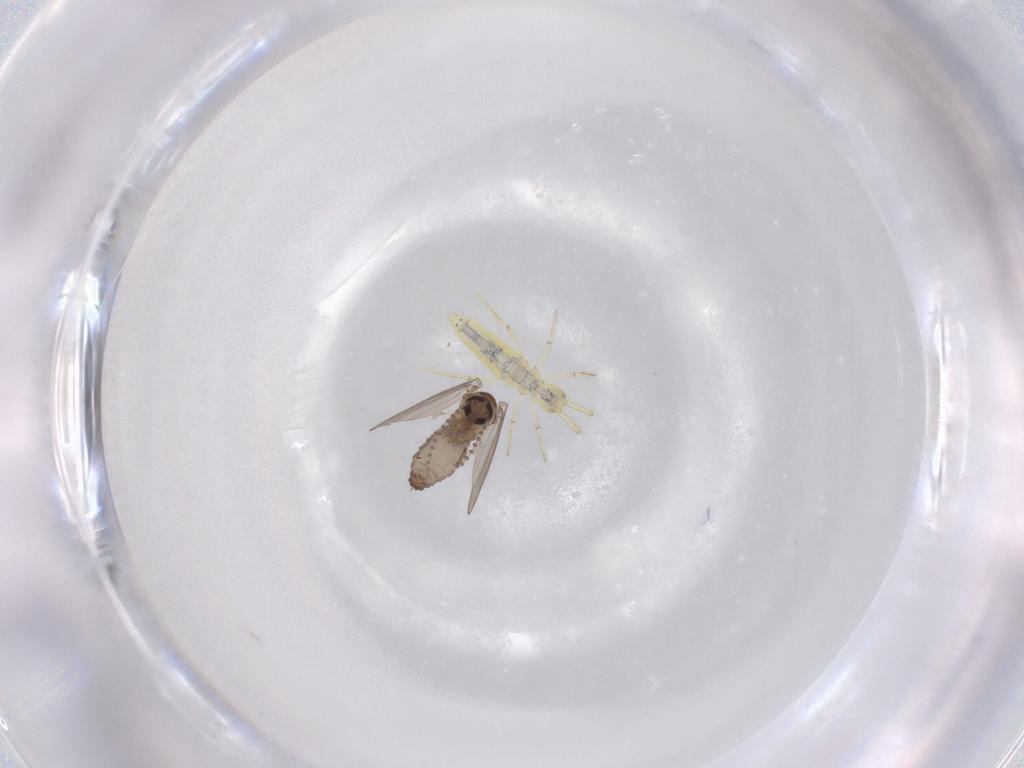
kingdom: Animalia
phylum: Arthropoda
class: Insecta
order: Diptera
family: Psychodidae
